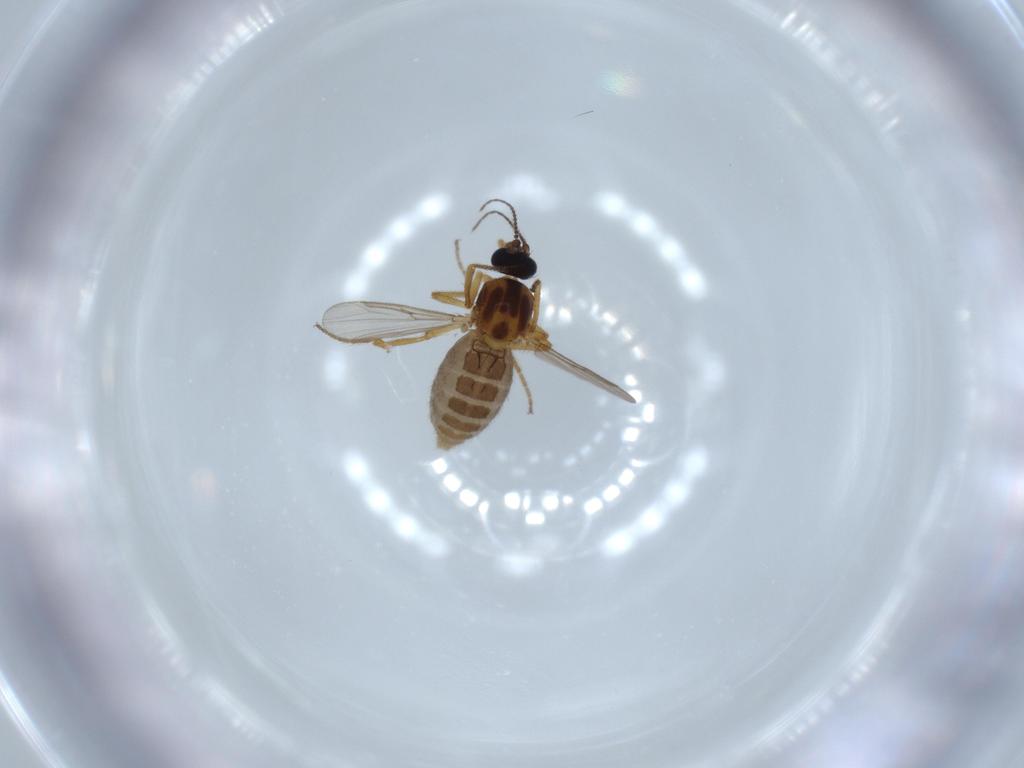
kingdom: Animalia
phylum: Arthropoda
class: Insecta
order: Diptera
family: Ceratopogonidae
